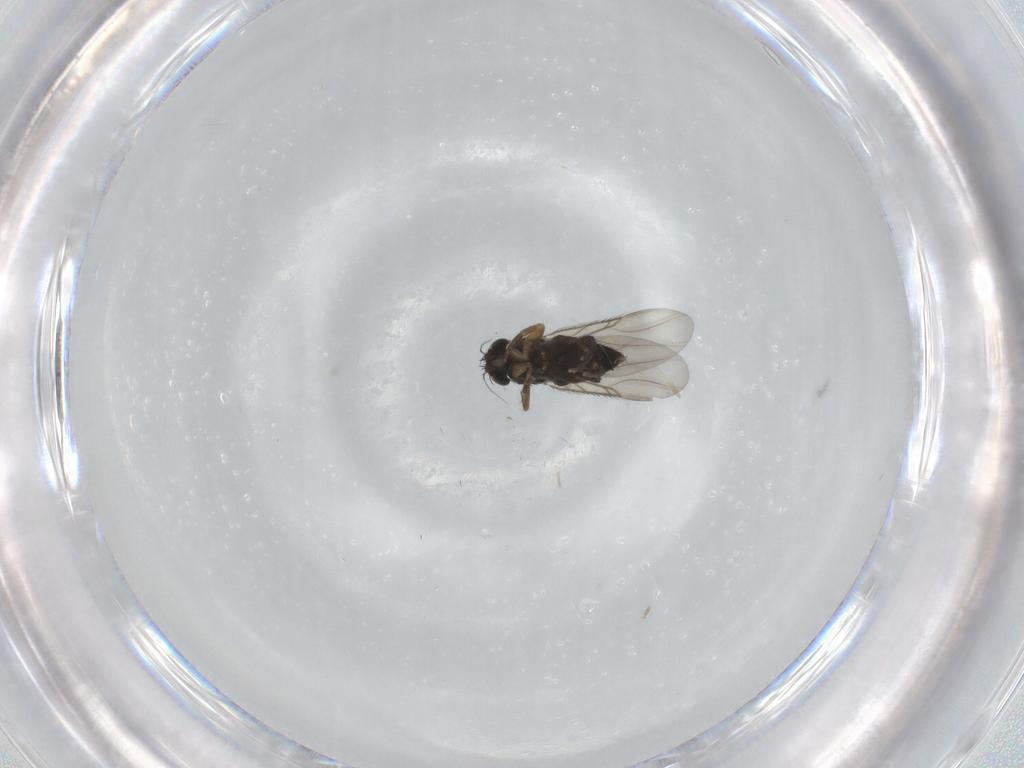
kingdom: Animalia
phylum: Arthropoda
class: Insecta
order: Diptera
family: Phoridae
